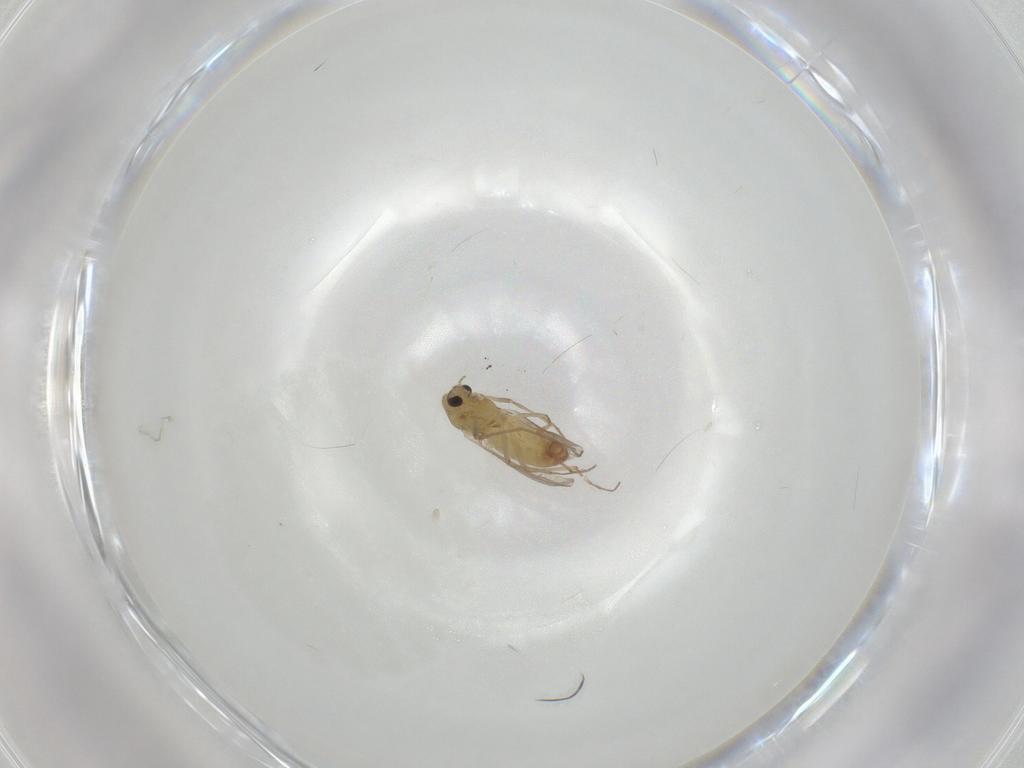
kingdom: Animalia
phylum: Arthropoda
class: Insecta
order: Diptera
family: Chironomidae
